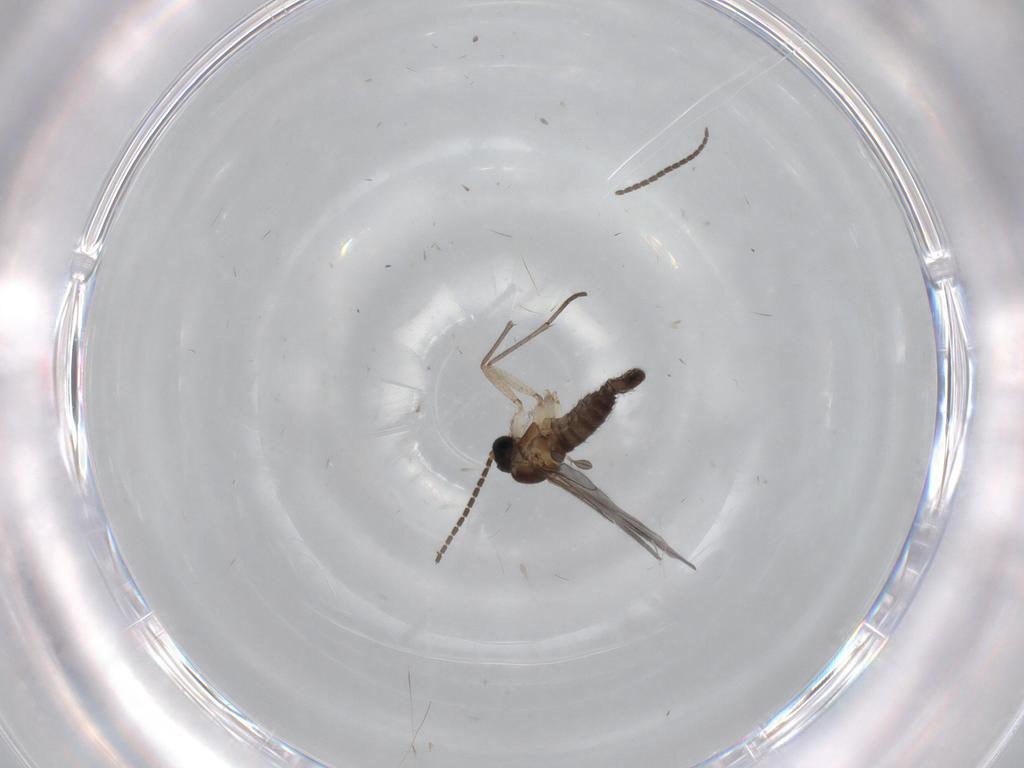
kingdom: Animalia
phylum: Arthropoda
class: Insecta
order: Diptera
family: Sciaridae
